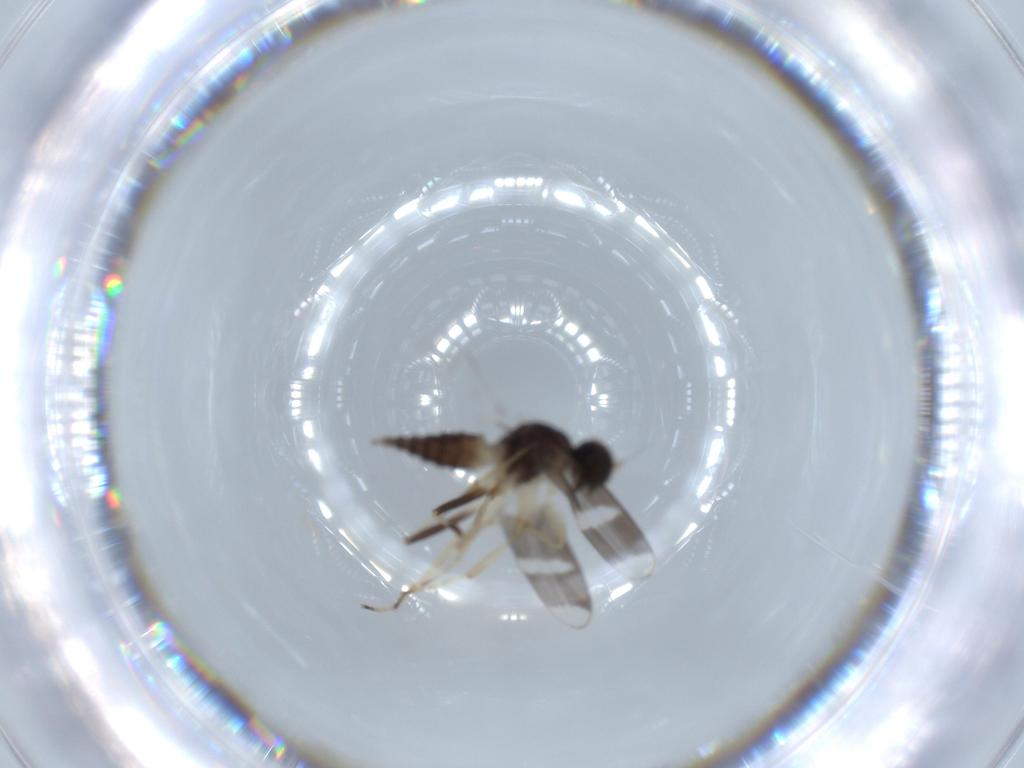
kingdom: Animalia
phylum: Arthropoda
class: Insecta
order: Diptera
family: Hybotidae
